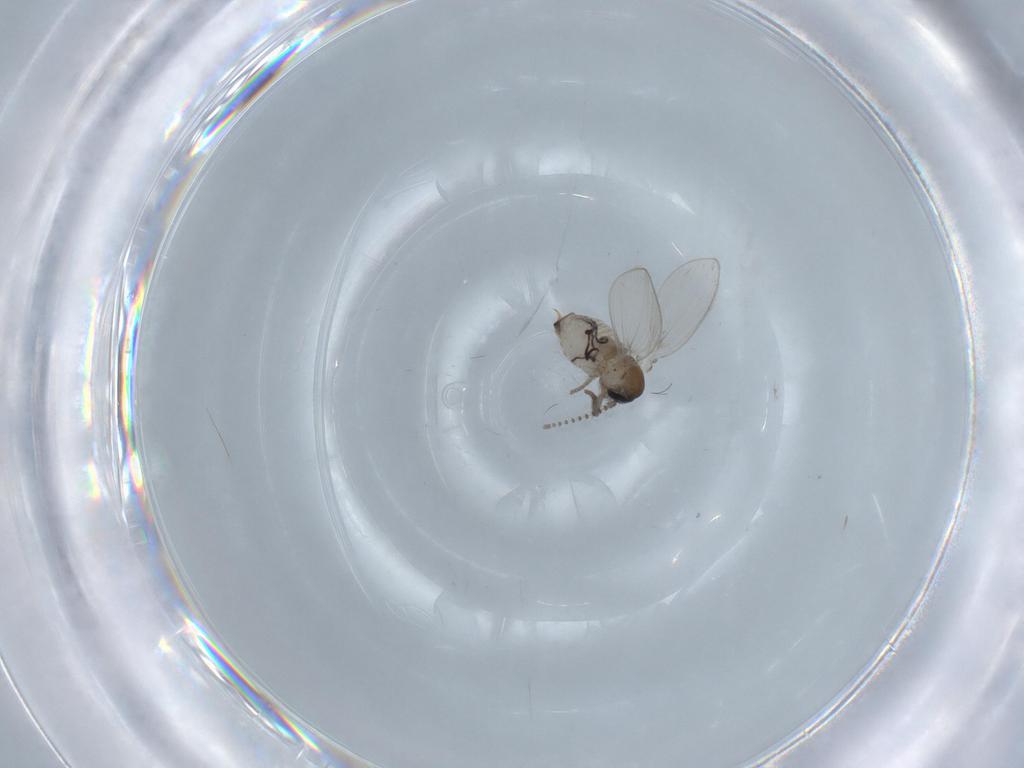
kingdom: Animalia
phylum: Arthropoda
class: Insecta
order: Diptera
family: Psychodidae
